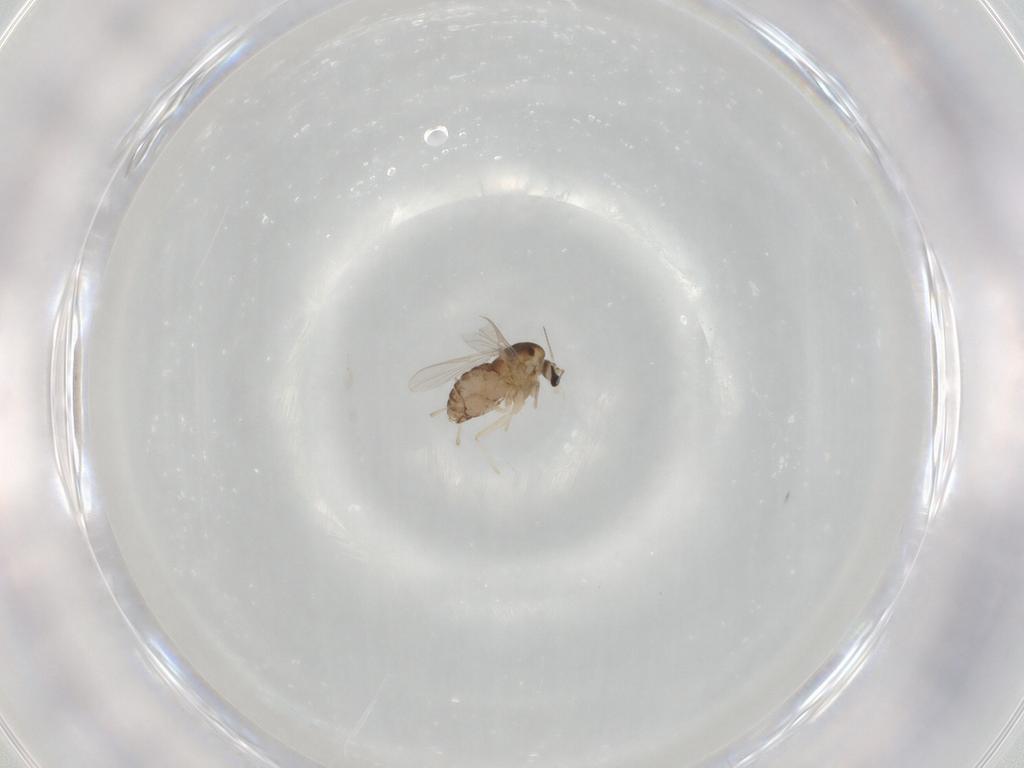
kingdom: Animalia
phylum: Arthropoda
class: Insecta
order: Diptera
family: Chironomidae
